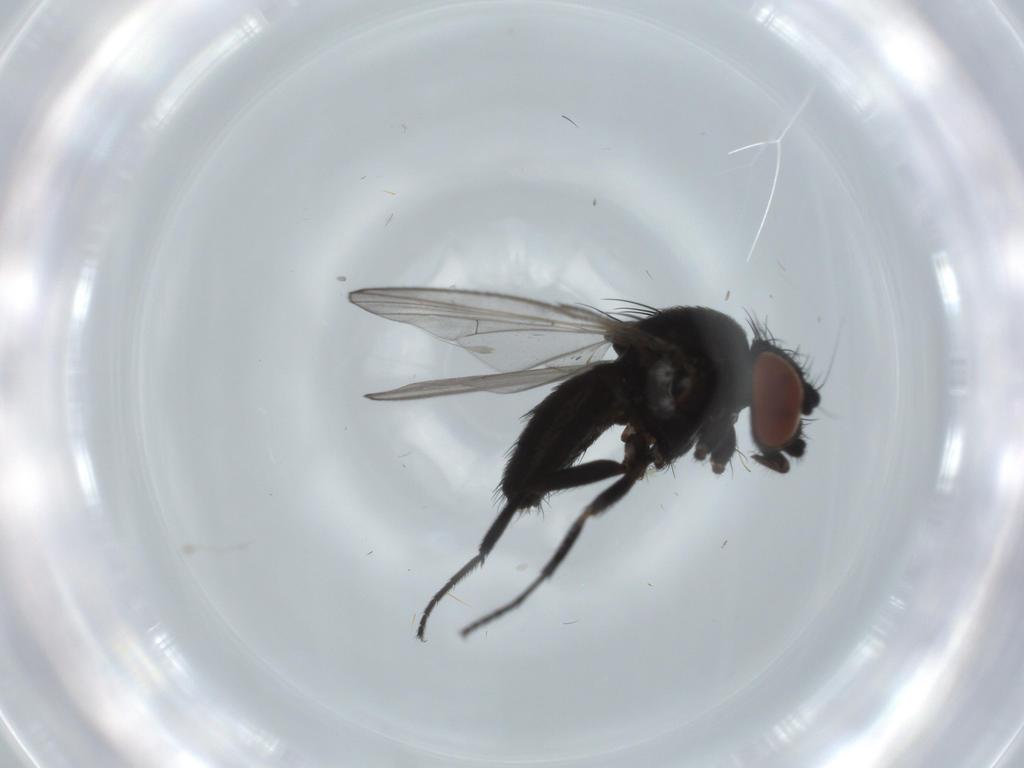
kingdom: Animalia
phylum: Arthropoda
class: Insecta
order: Diptera
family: Milichiidae
